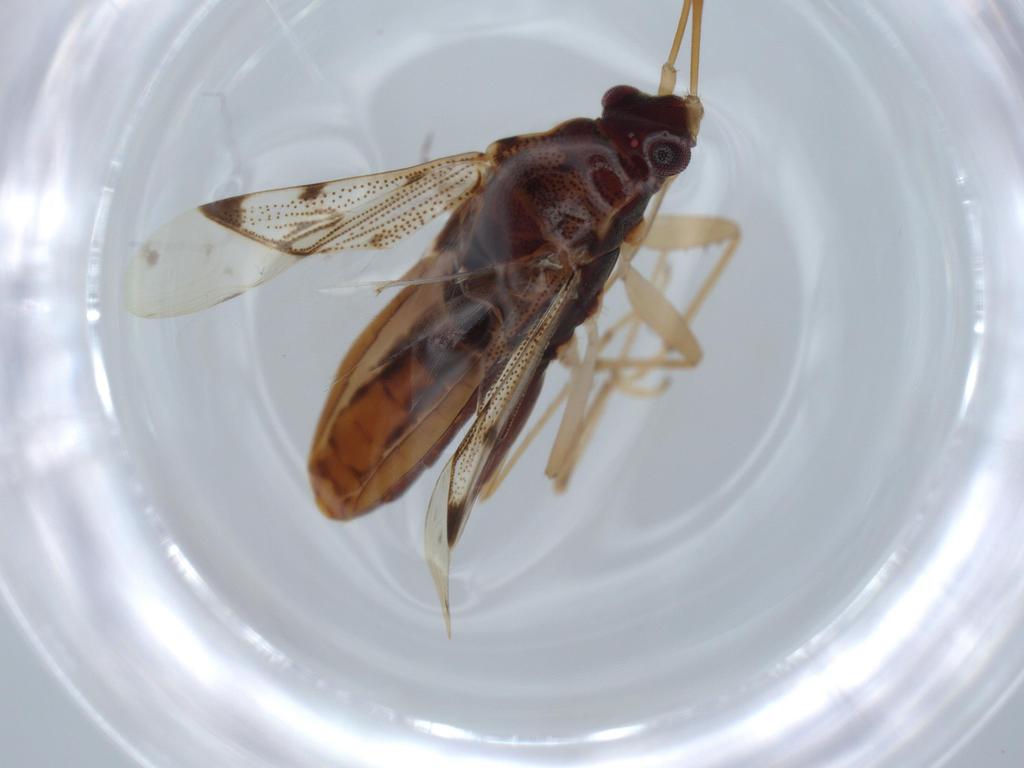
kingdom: Animalia
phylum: Arthropoda
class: Insecta
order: Hemiptera
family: Rhyparochromidae
